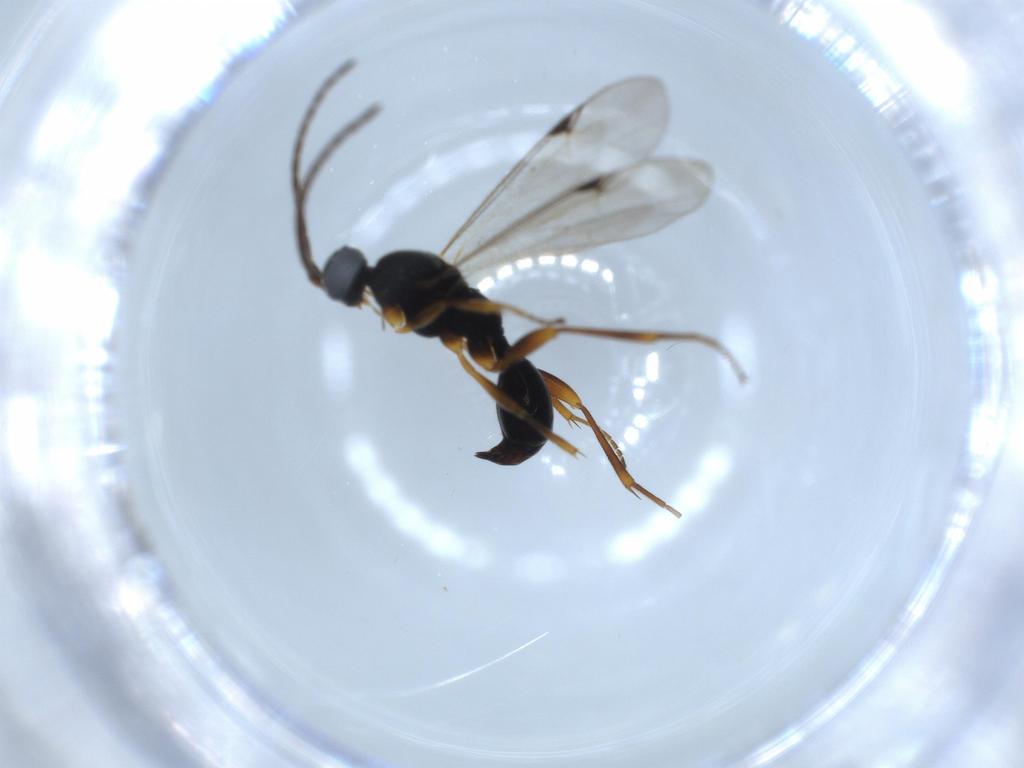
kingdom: Animalia
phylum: Arthropoda
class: Insecta
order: Hymenoptera
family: Proctotrupidae
